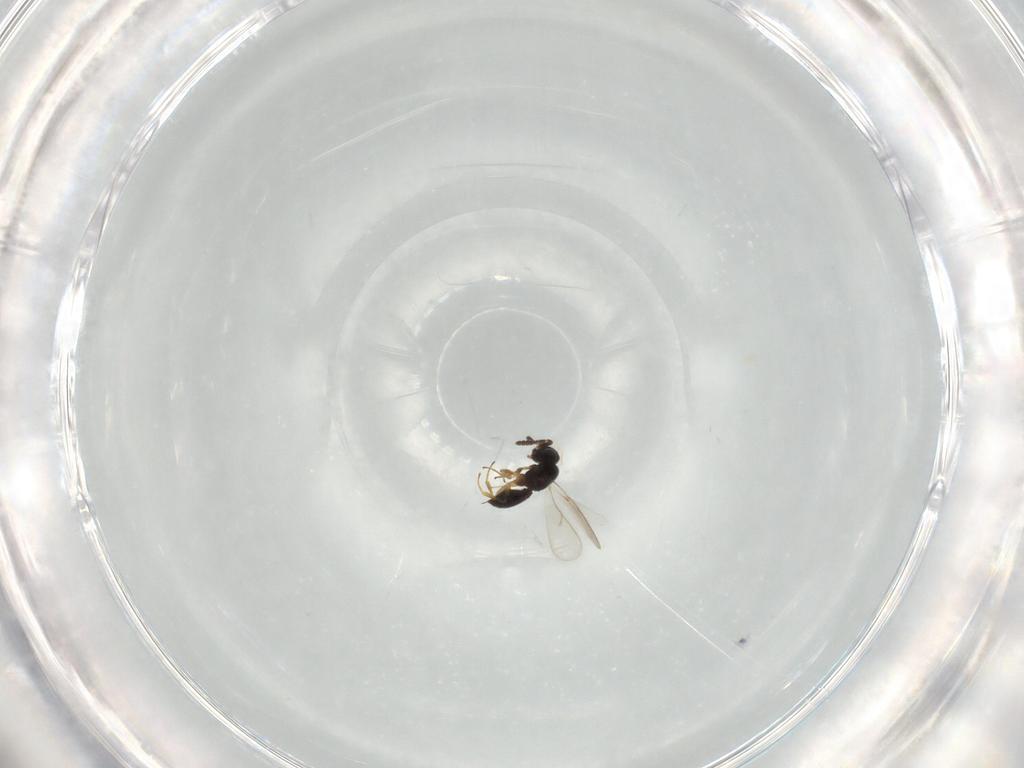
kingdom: Animalia
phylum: Arthropoda
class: Insecta
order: Hymenoptera
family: Scelionidae
